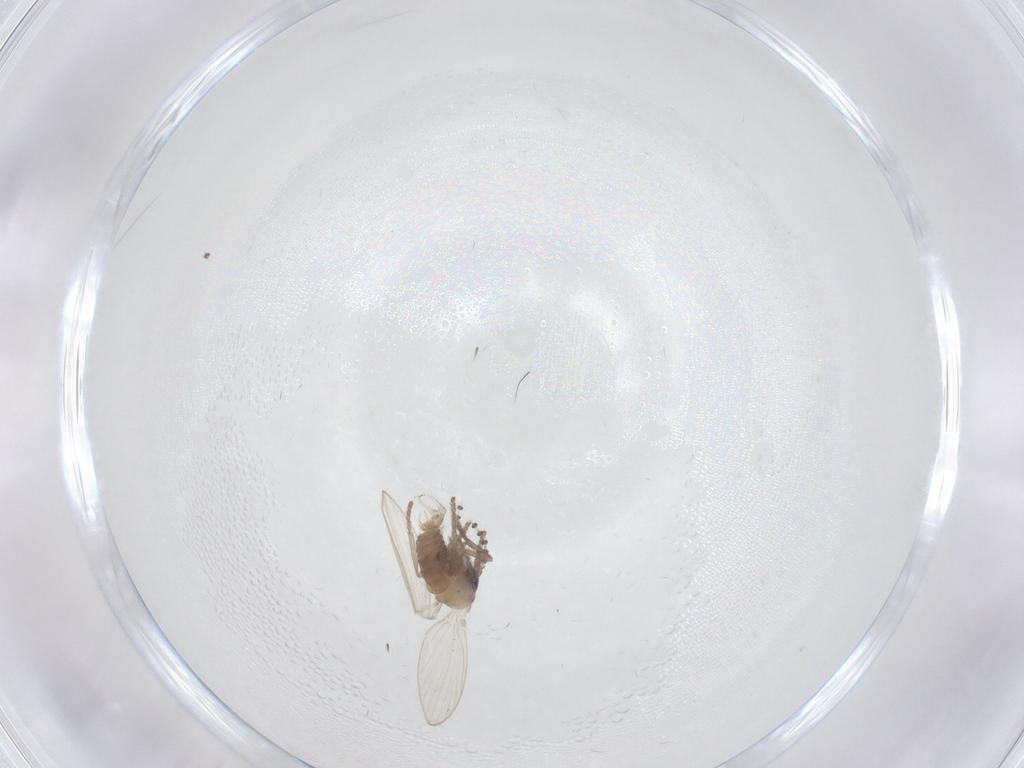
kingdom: Animalia
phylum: Arthropoda
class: Insecta
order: Diptera
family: Psychodidae
